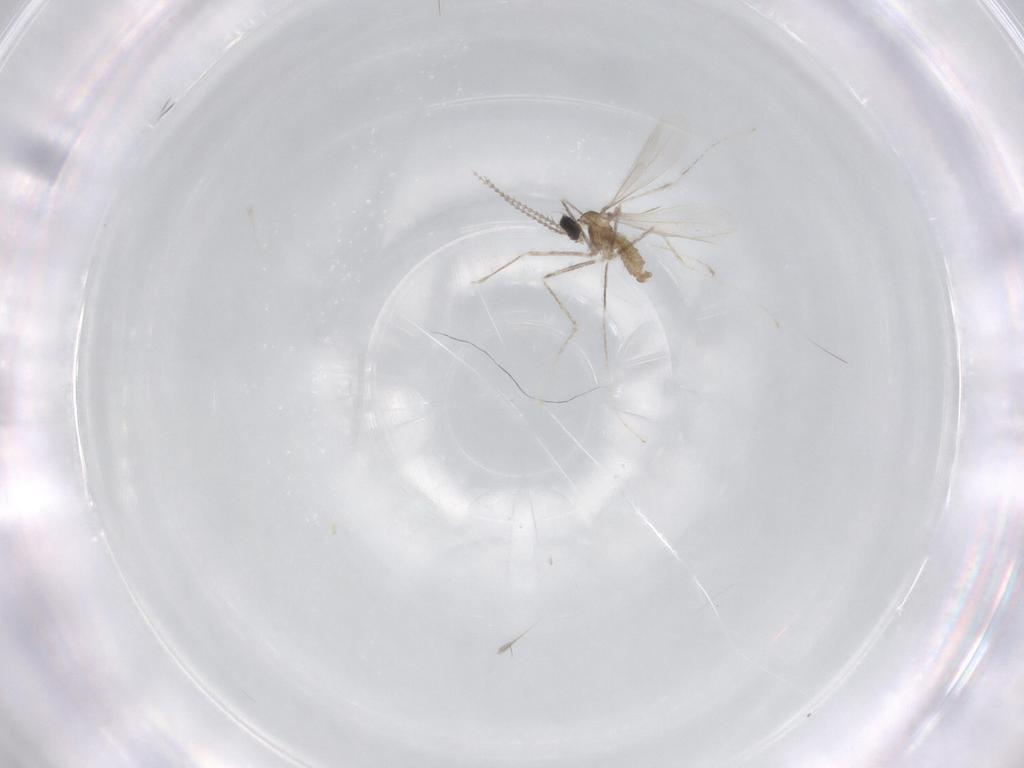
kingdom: Animalia
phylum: Arthropoda
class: Insecta
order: Diptera
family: Cecidomyiidae
